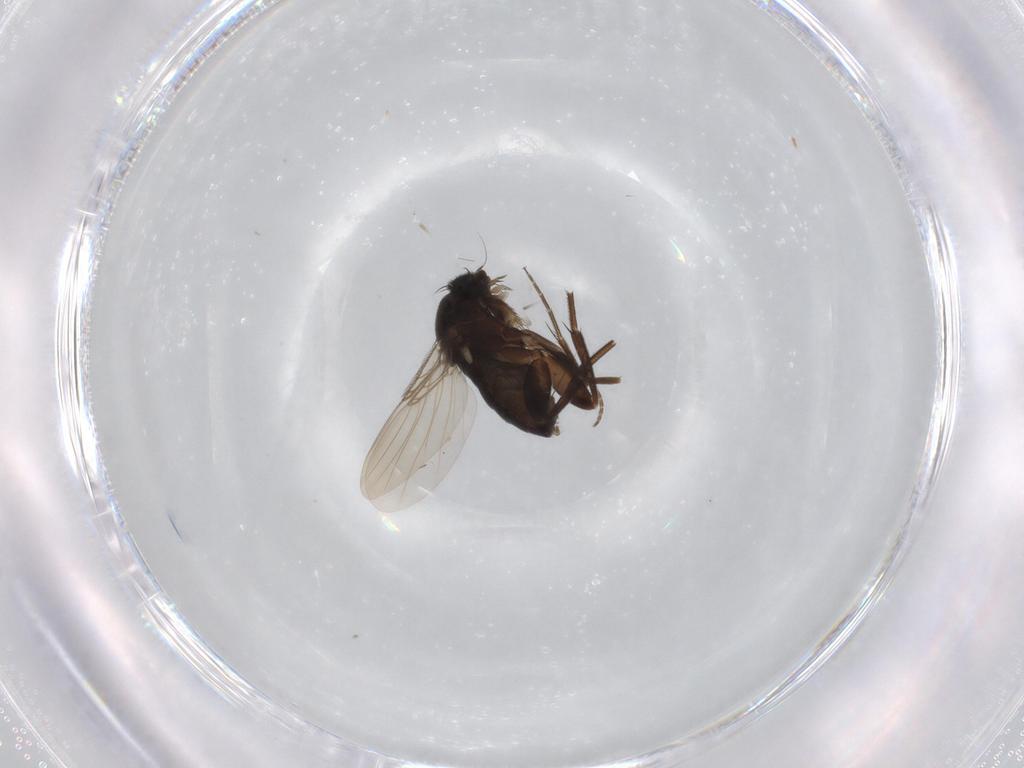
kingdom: Animalia
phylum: Arthropoda
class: Insecta
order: Diptera
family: Phoridae
